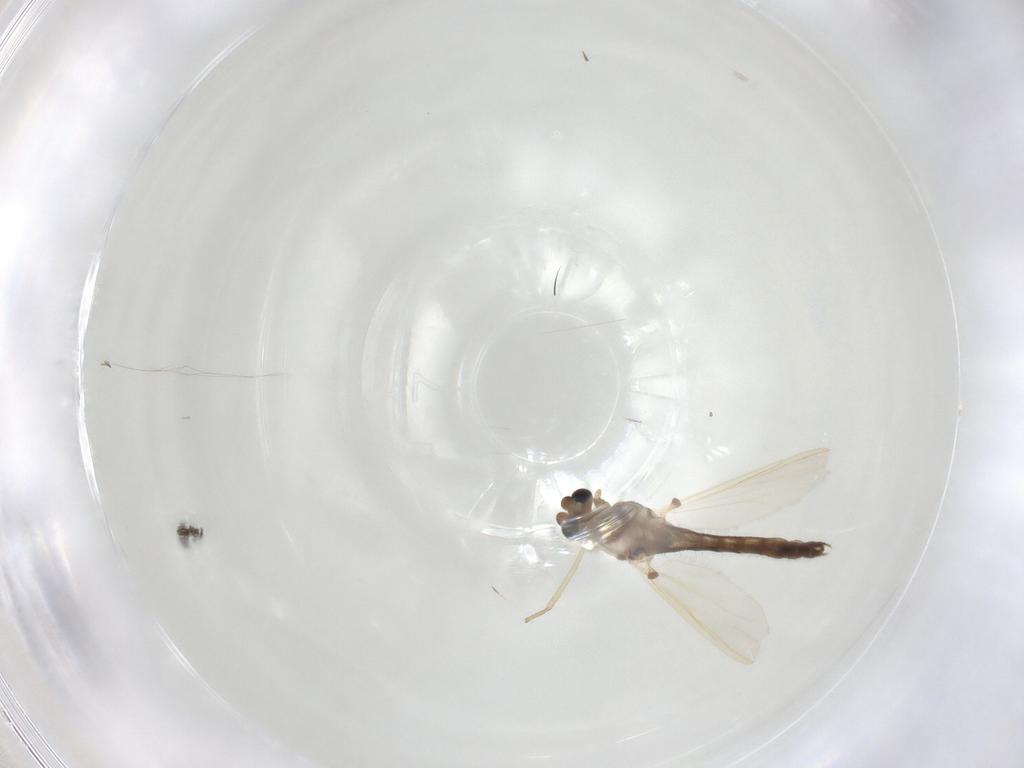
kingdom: Animalia
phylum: Arthropoda
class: Insecta
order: Diptera
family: Chironomidae
